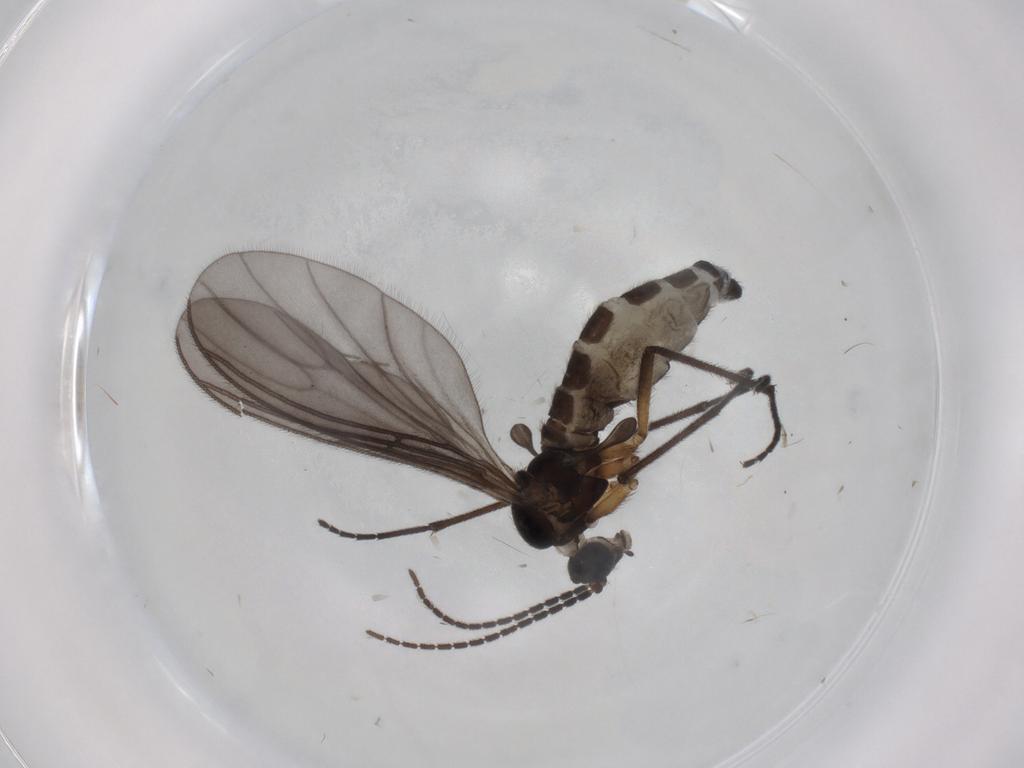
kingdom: Animalia
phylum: Arthropoda
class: Insecta
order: Diptera
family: Sciaridae
